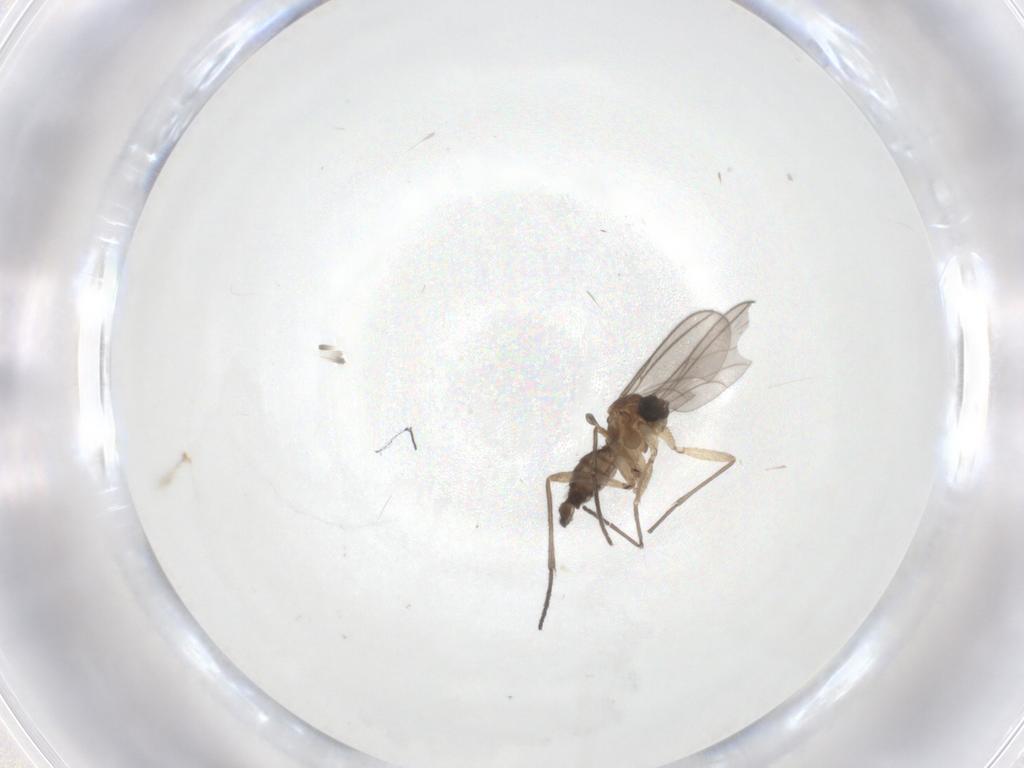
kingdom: Animalia
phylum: Arthropoda
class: Insecta
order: Diptera
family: Sciaridae
